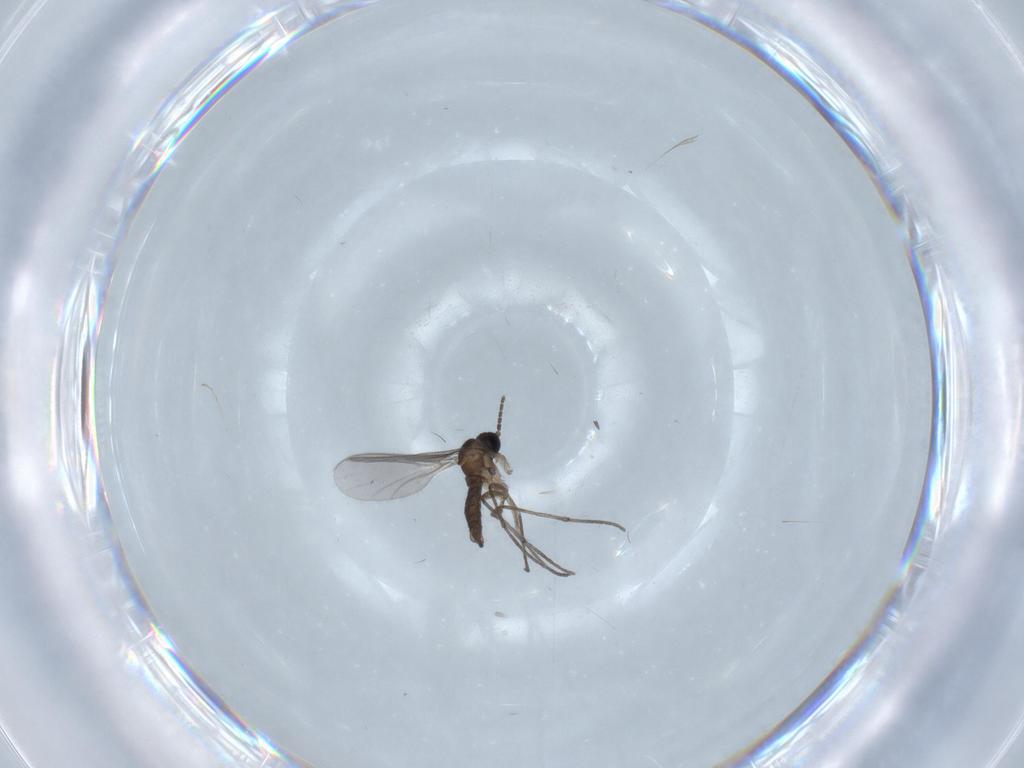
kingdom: Animalia
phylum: Arthropoda
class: Insecta
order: Diptera
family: Sciaridae
